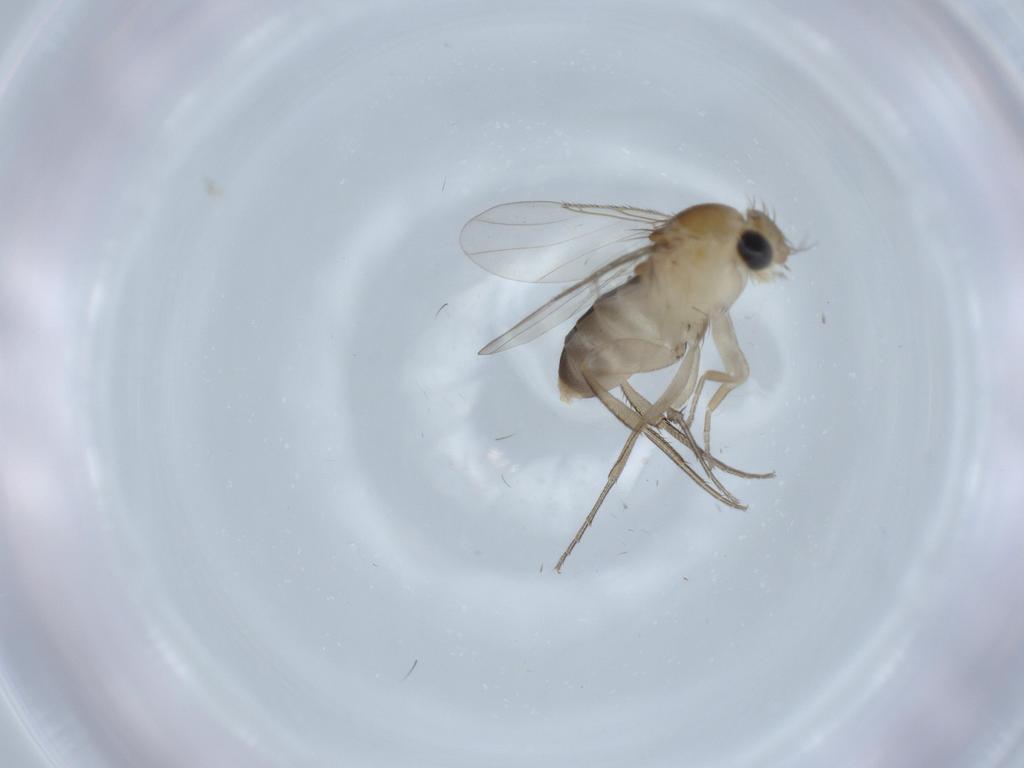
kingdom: Animalia
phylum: Arthropoda
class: Insecta
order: Diptera
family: Phoridae
